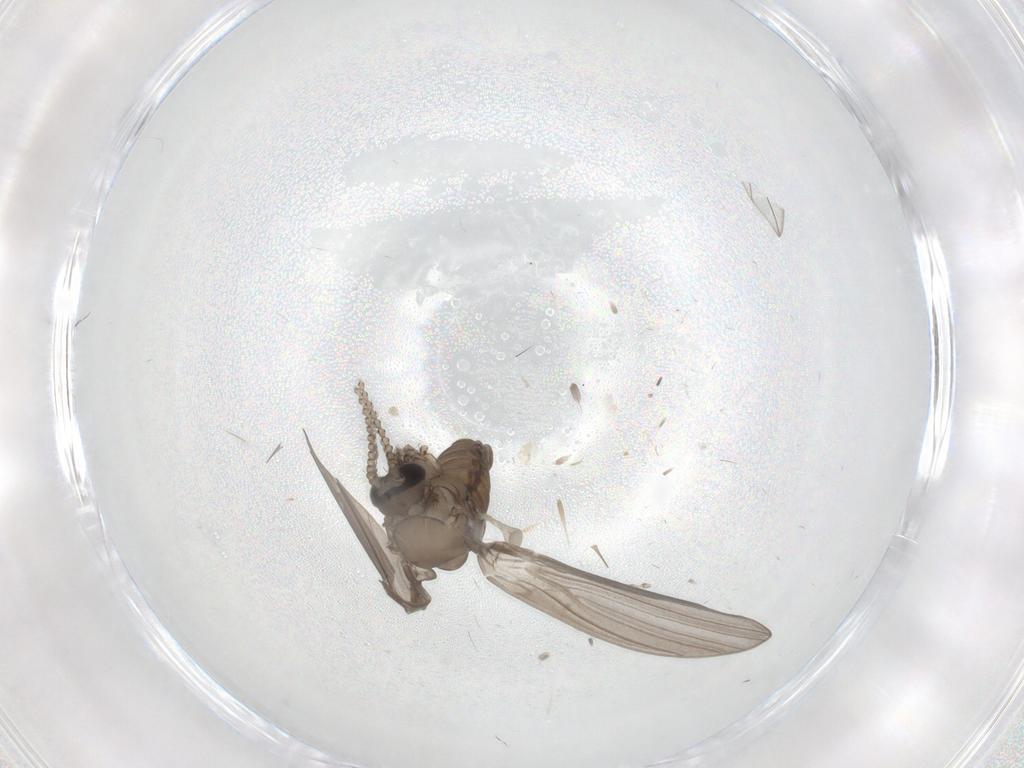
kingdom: Animalia
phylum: Arthropoda
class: Insecta
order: Diptera
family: Psychodidae
